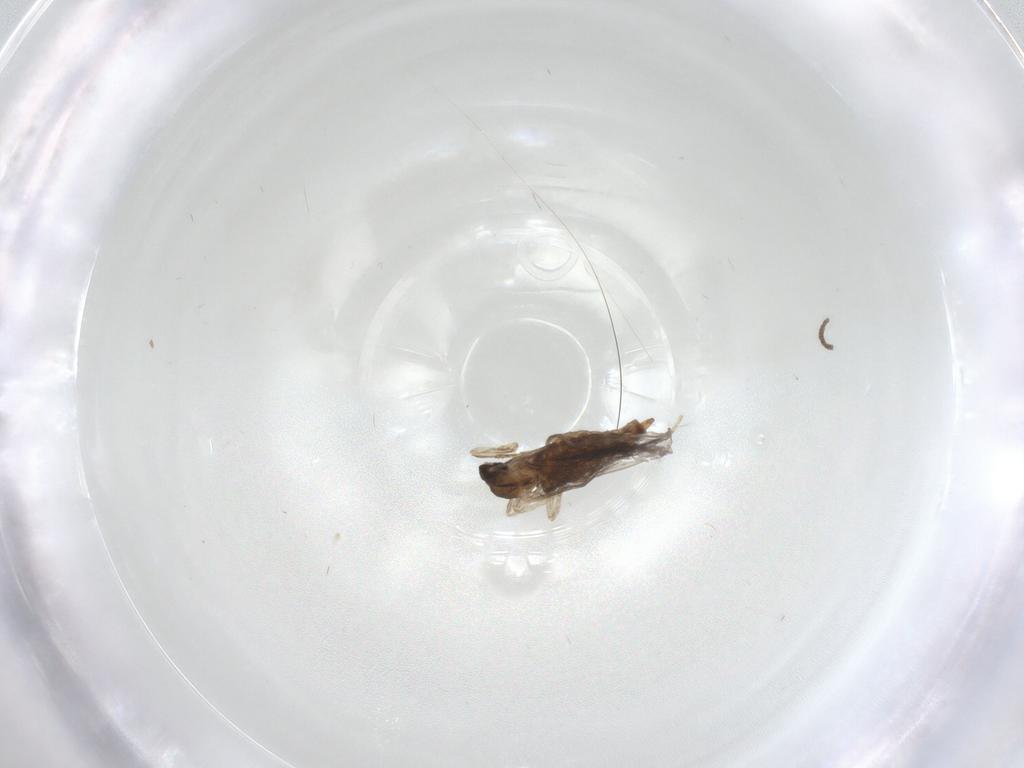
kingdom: Animalia
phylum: Arthropoda
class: Insecta
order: Diptera
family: Cecidomyiidae
